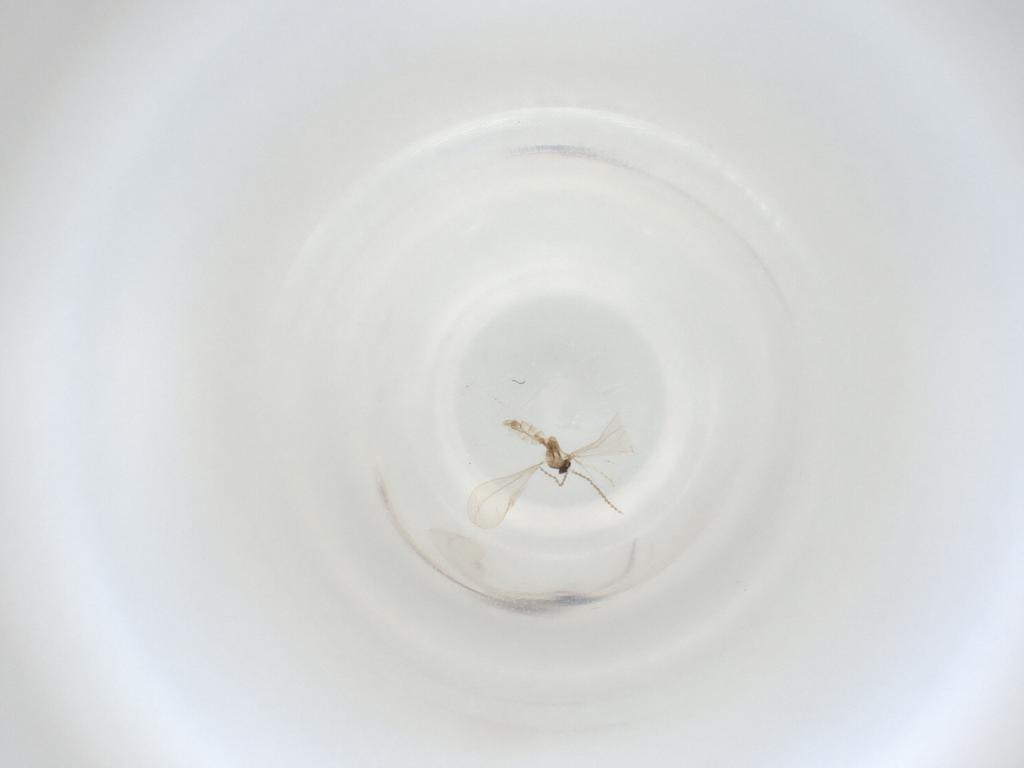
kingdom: Animalia
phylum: Arthropoda
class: Insecta
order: Diptera
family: Cecidomyiidae
